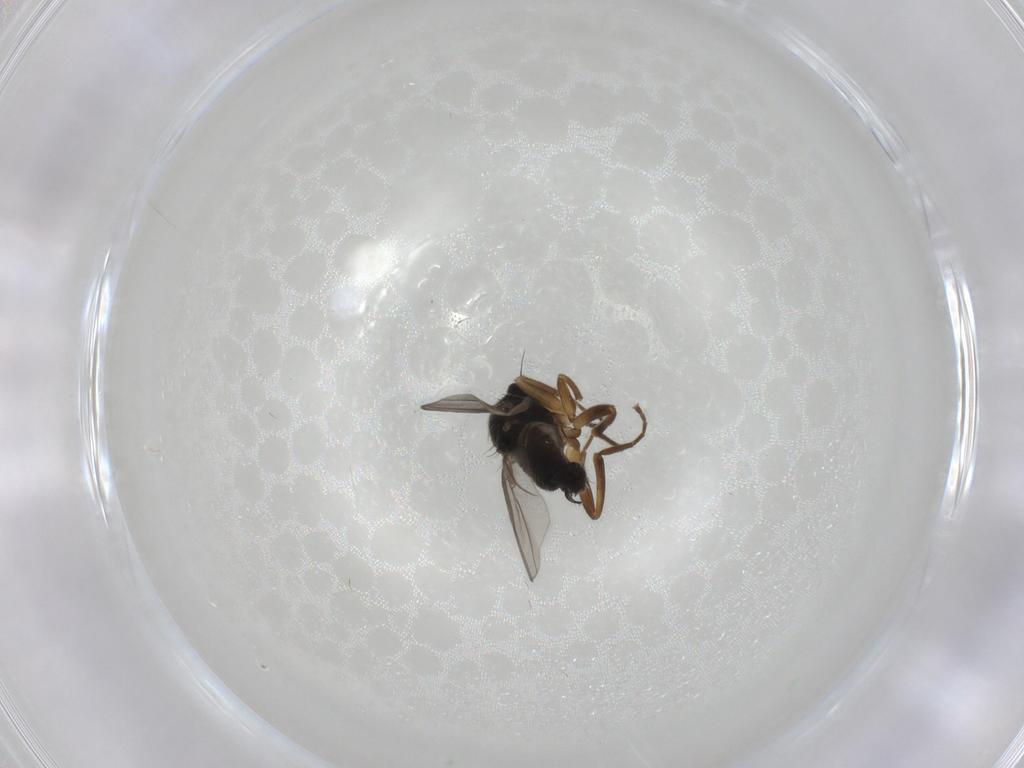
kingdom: Animalia
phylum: Arthropoda
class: Insecta
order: Diptera
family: Hybotidae
